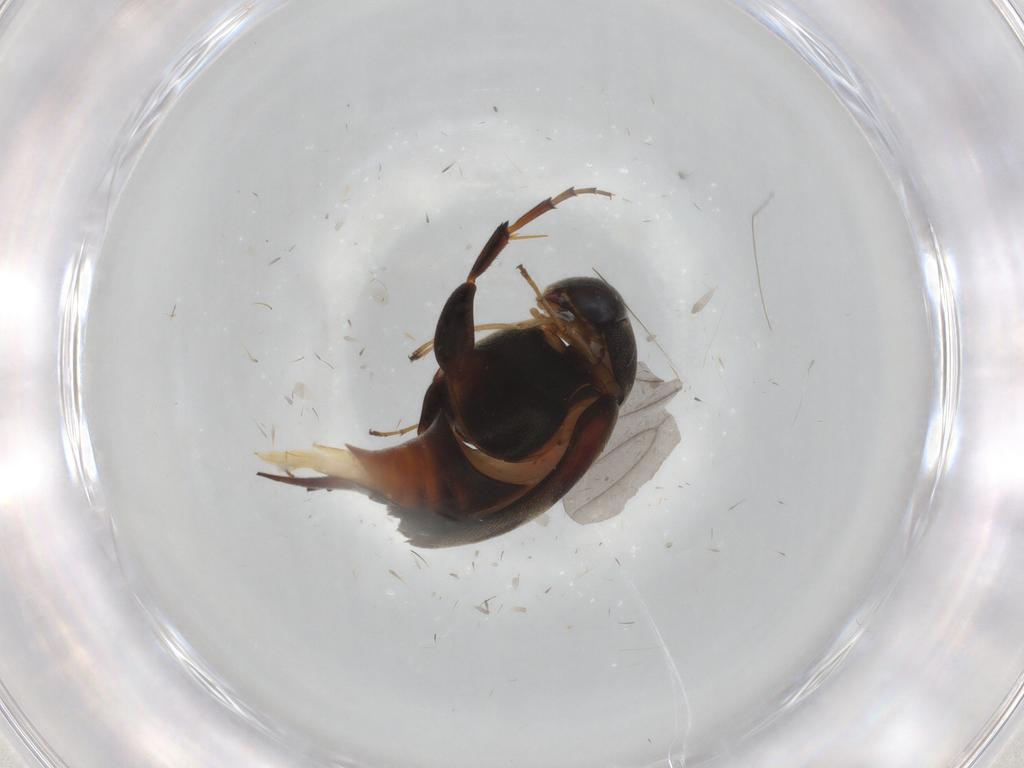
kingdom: Animalia
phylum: Arthropoda
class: Insecta
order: Coleoptera
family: Mordellidae
